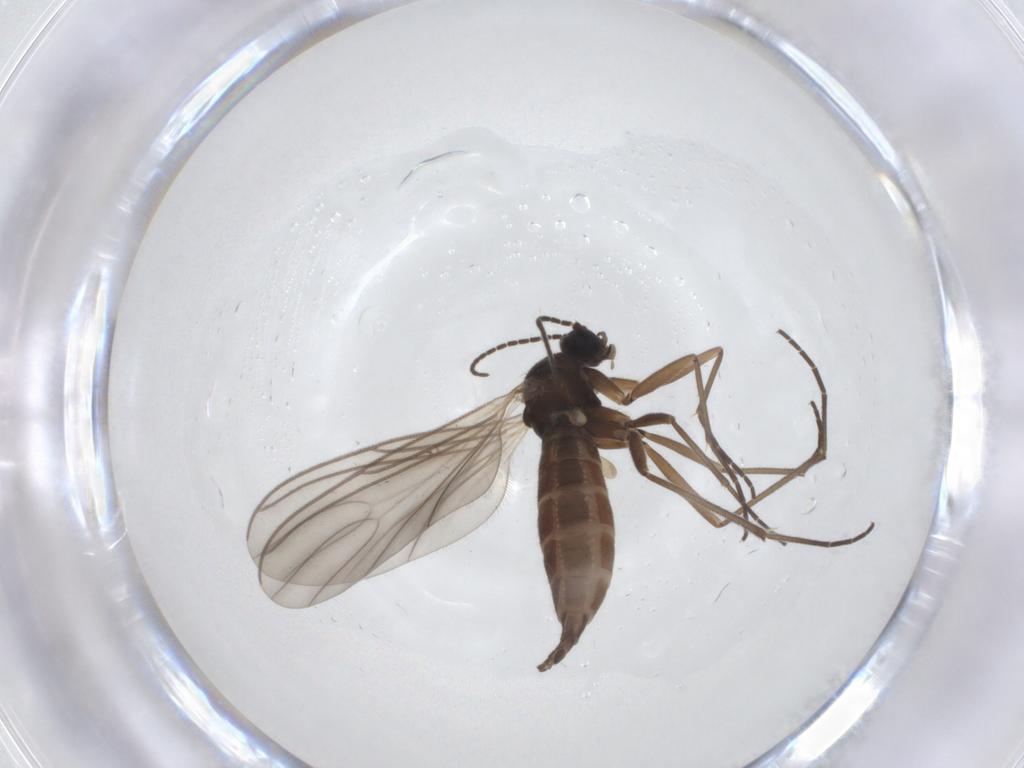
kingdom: Animalia
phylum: Arthropoda
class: Insecta
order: Diptera
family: Sciaridae
